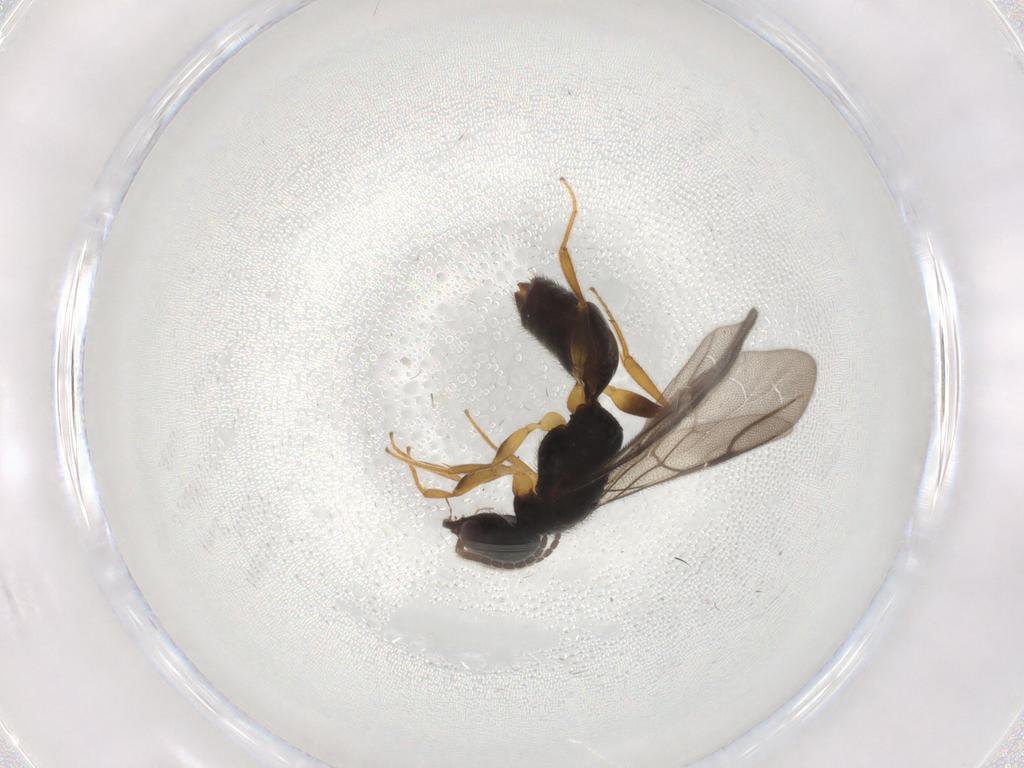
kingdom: Animalia
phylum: Arthropoda
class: Insecta
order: Hymenoptera
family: Bethylidae
